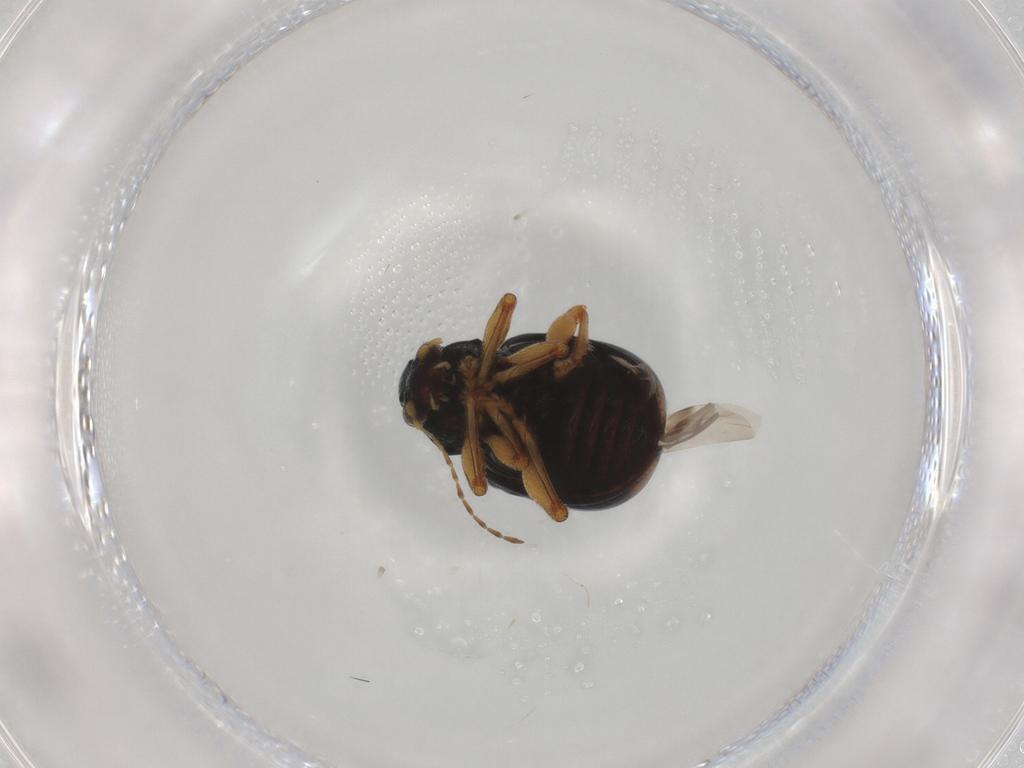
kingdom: Animalia
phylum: Arthropoda
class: Insecta
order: Coleoptera
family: Chrysomelidae
